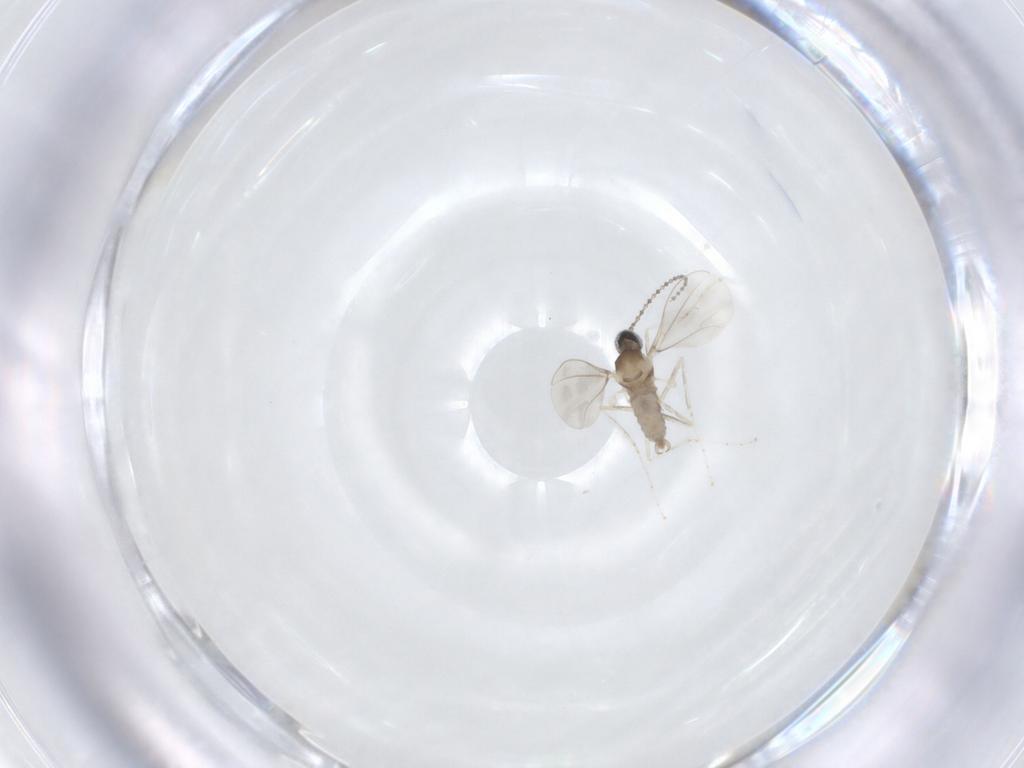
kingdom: Animalia
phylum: Arthropoda
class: Insecta
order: Diptera
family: Cecidomyiidae
